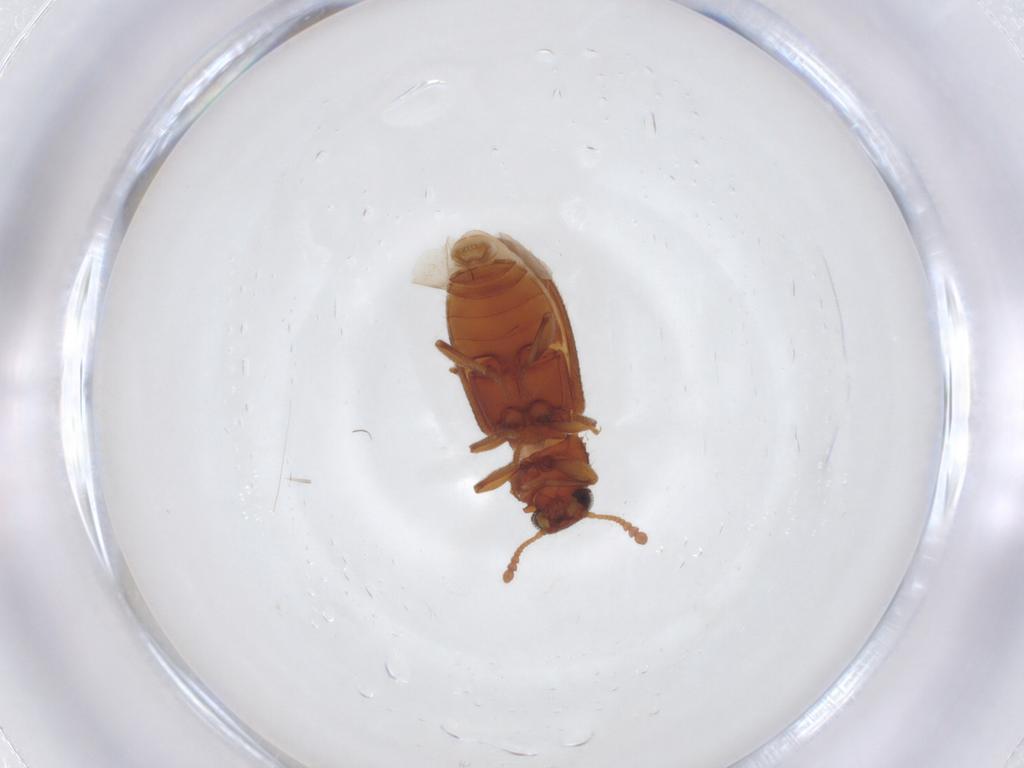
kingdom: Animalia
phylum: Arthropoda
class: Insecta
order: Coleoptera
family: Tenebrionidae
